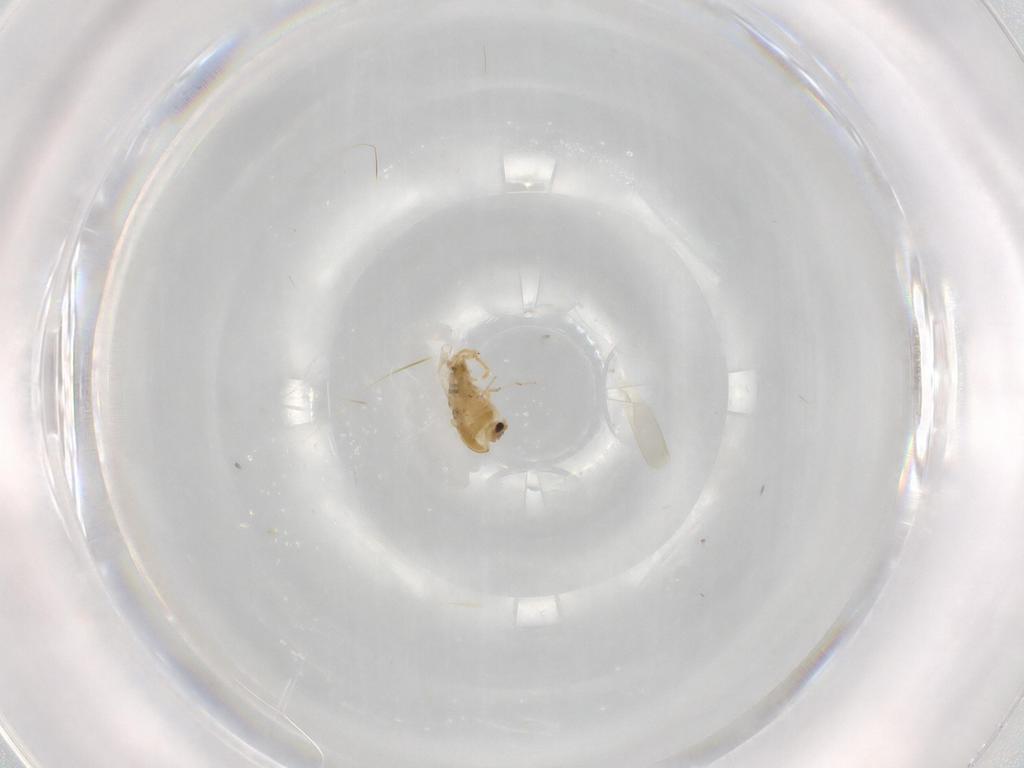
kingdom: Animalia
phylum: Arthropoda
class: Insecta
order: Diptera
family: Chironomidae
